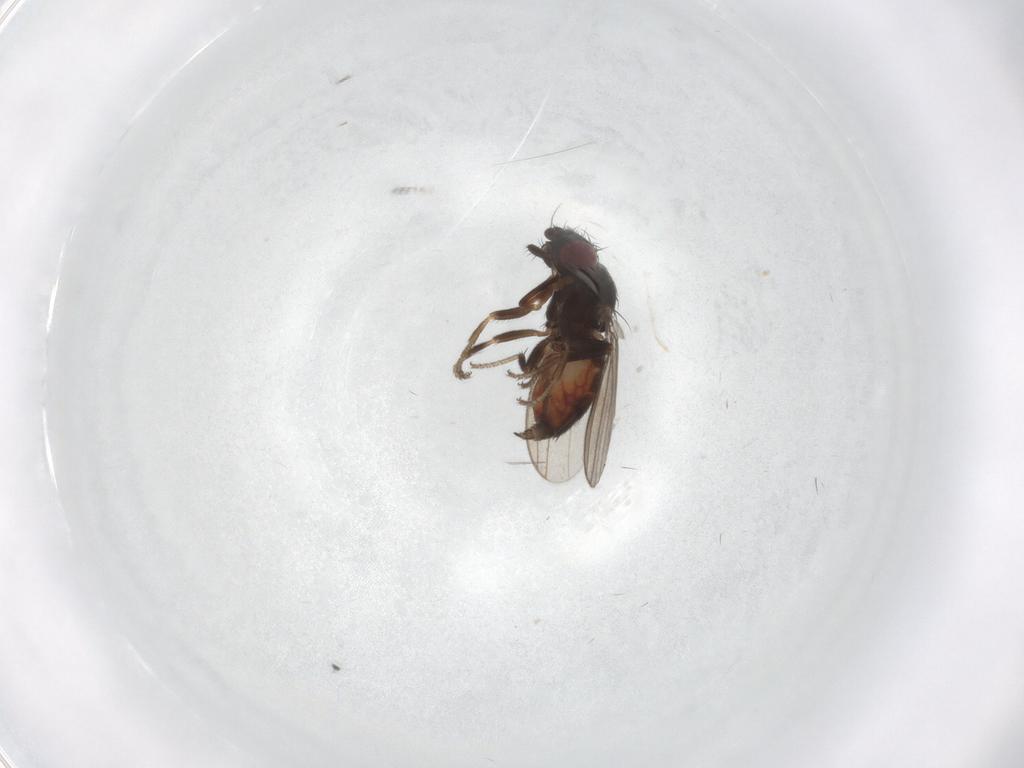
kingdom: Animalia
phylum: Arthropoda
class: Insecta
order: Diptera
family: Milichiidae
